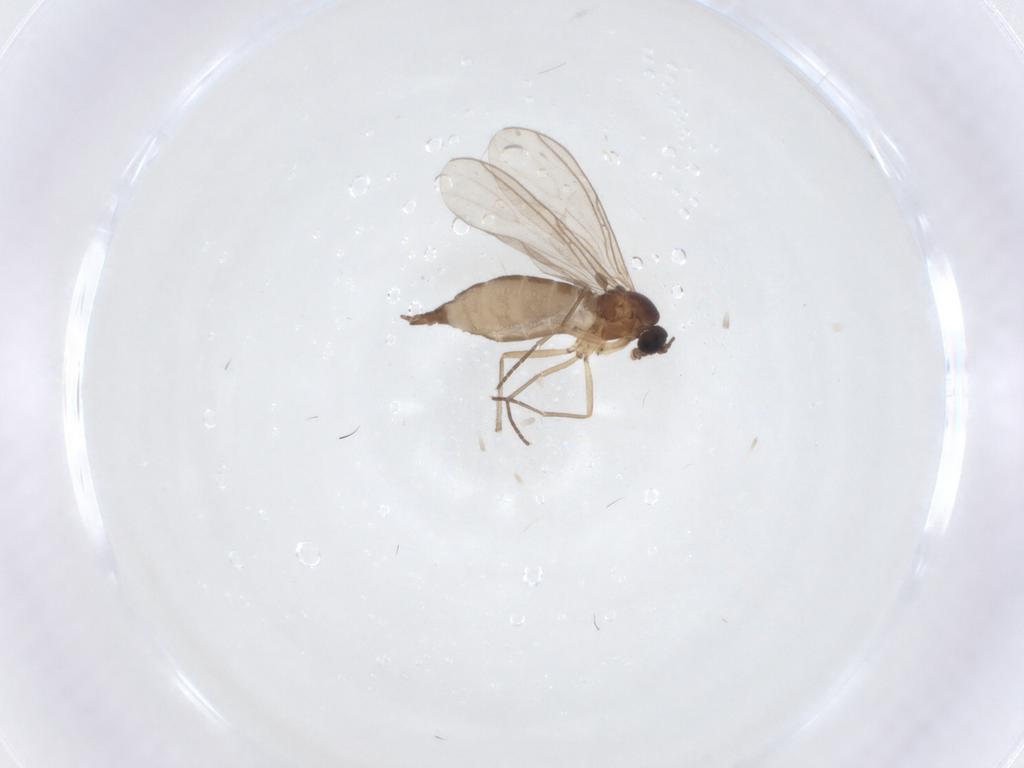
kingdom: Animalia
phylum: Arthropoda
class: Insecta
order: Diptera
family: Sciaridae
